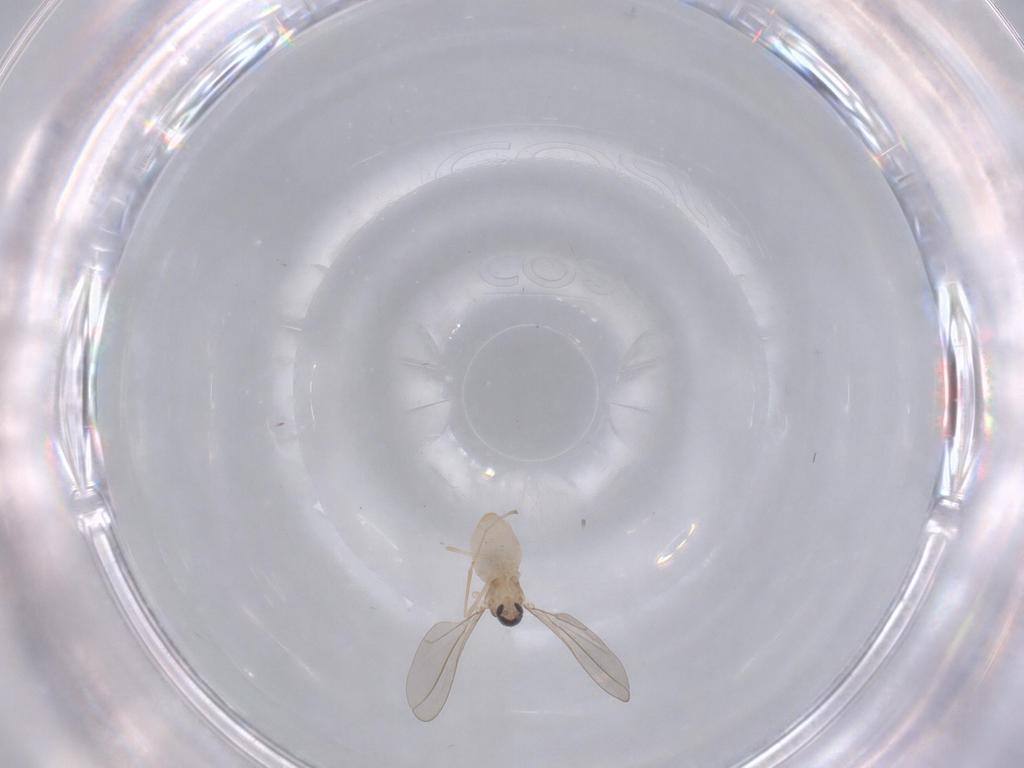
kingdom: Animalia
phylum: Arthropoda
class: Insecta
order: Diptera
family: Cecidomyiidae
